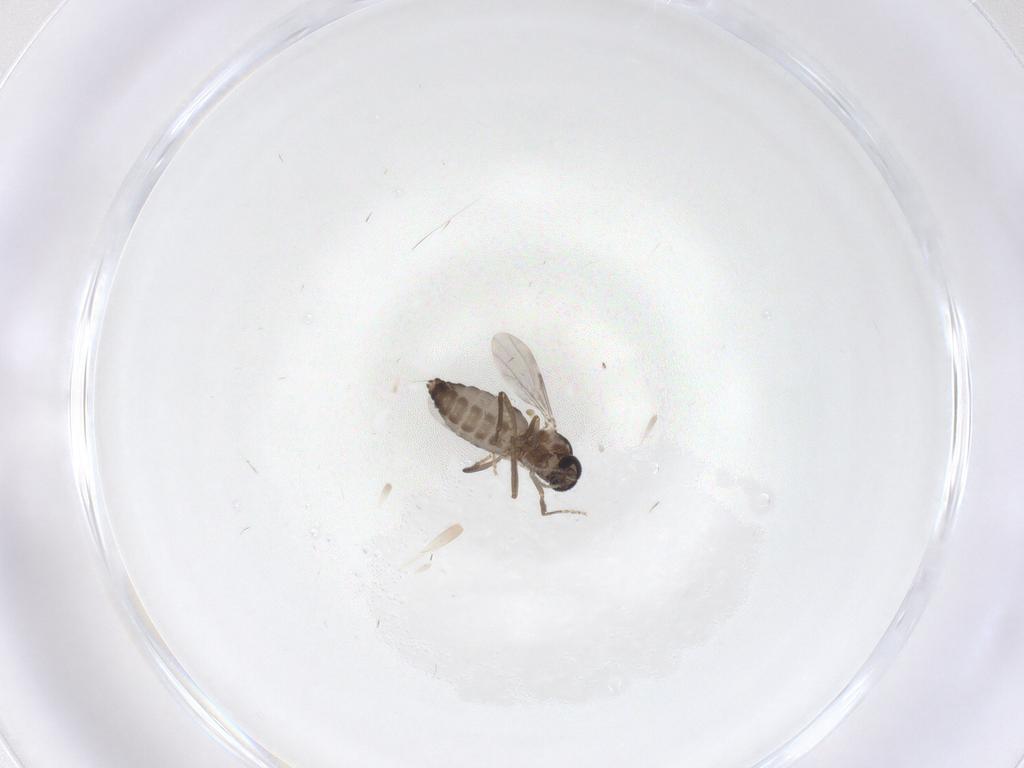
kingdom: Animalia
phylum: Arthropoda
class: Insecta
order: Diptera
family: Ceratopogonidae
